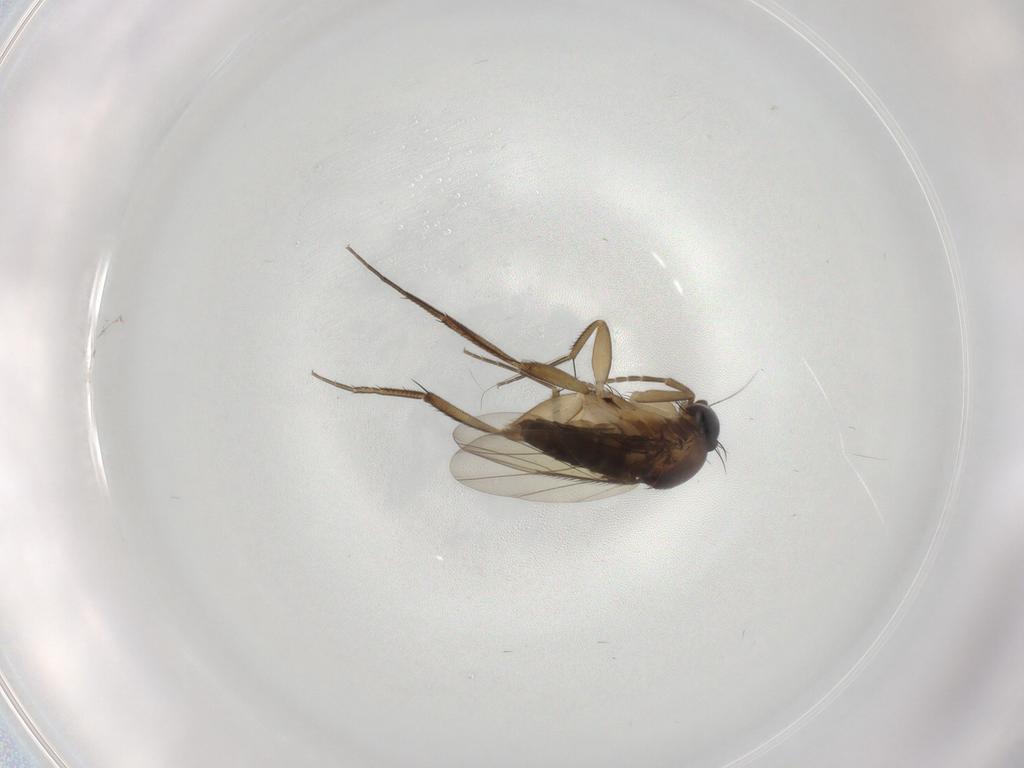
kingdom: Animalia
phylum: Arthropoda
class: Insecta
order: Diptera
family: Phoridae
